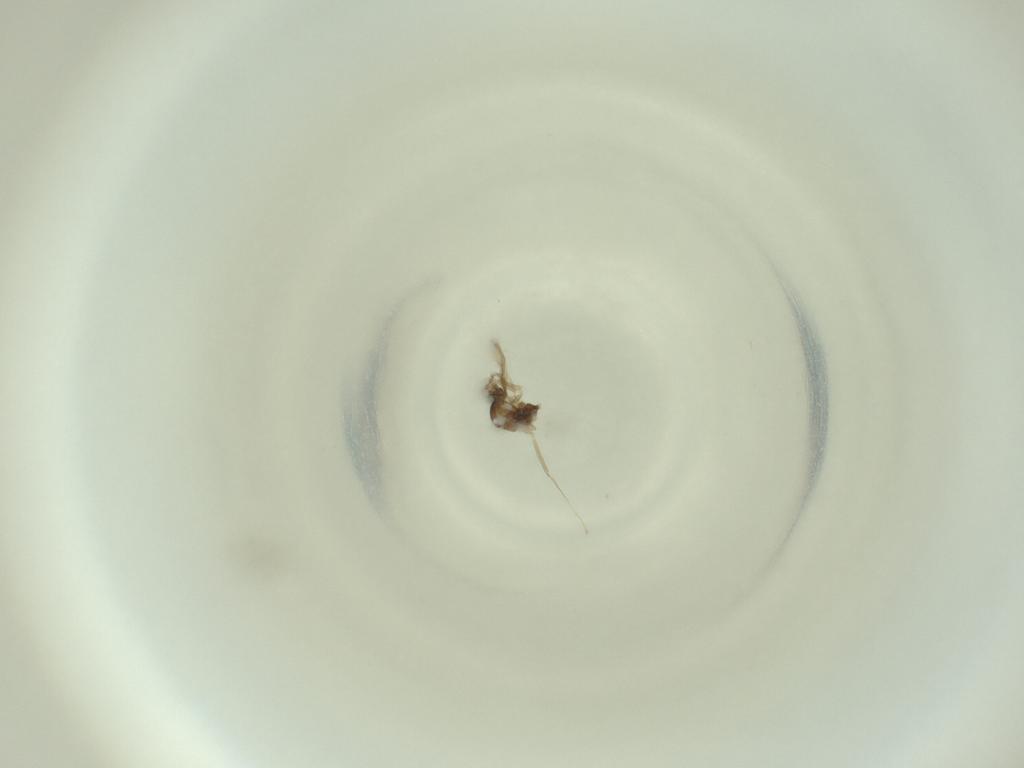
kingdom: Animalia
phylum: Arthropoda
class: Insecta
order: Diptera
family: Cecidomyiidae
